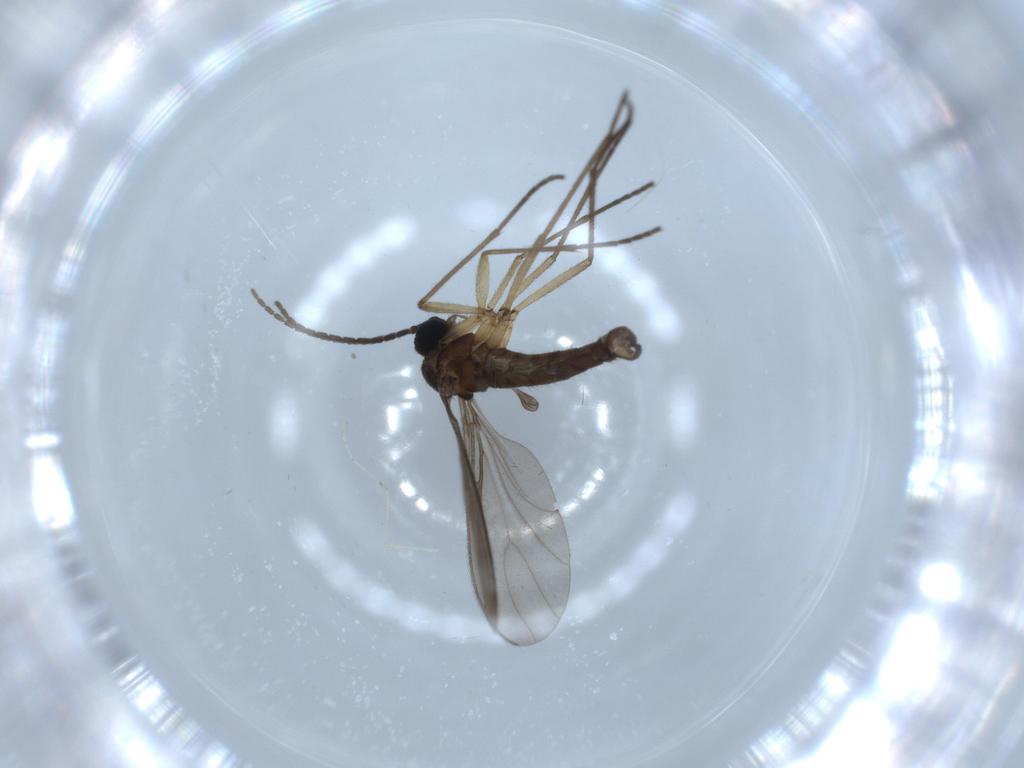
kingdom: Animalia
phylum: Arthropoda
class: Insecta
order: Diptera
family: Sciaridae
